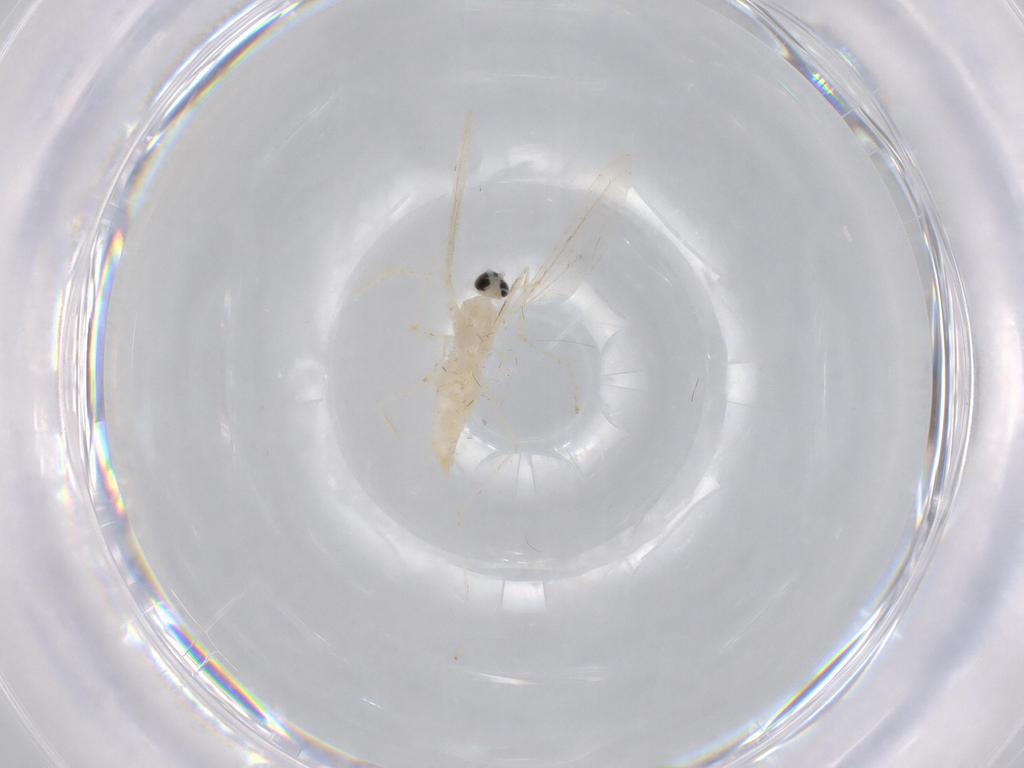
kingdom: Animalia
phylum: Arthropoda
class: Insecta
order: Diptera
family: Cecidomyiidae
